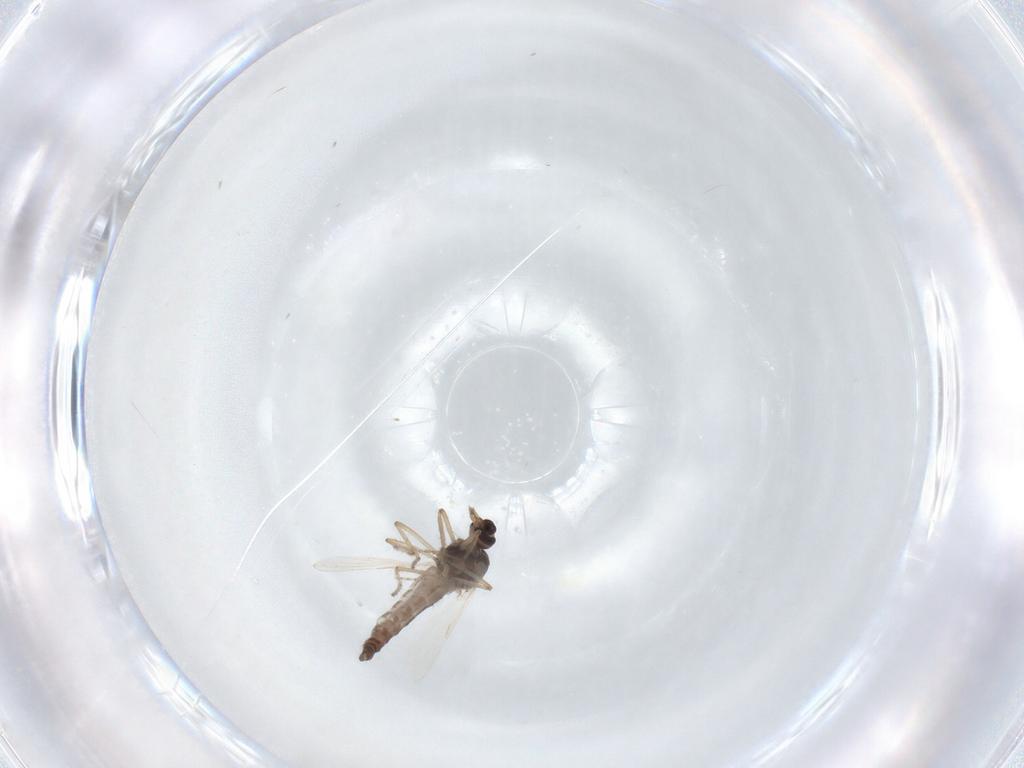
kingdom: Animalia
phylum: Arthropoda
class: Insecta
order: Diptera
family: Ceratopogonidae
